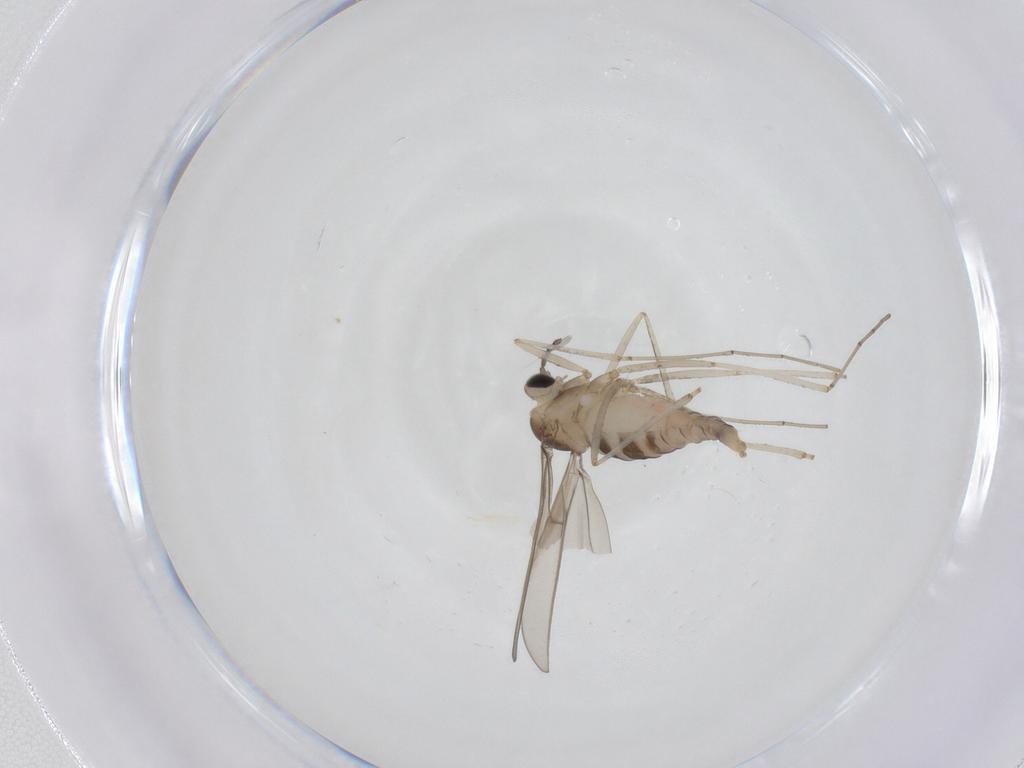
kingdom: Animalia
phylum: Arthropoda
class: Insecta
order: Diptera
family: Cecidomyiidae
